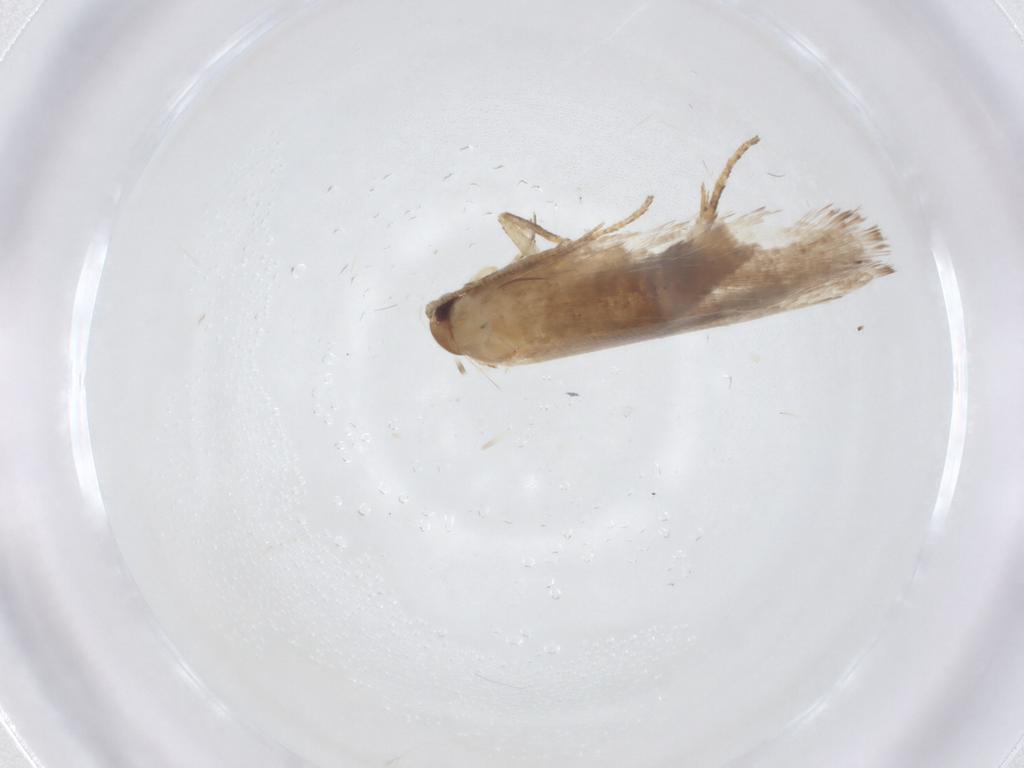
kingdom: Animalia
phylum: Arthropoda
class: Insecta
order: Lepidoptera
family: Gelechiidae
